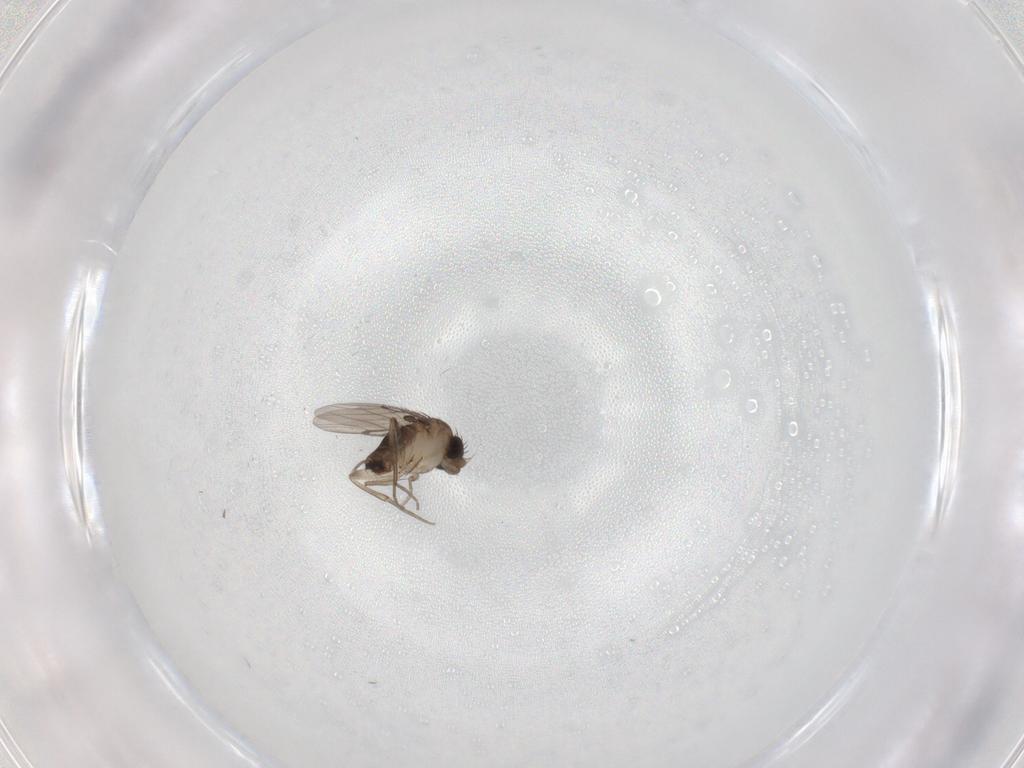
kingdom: Animalia
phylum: Arthropoda
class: Insecta
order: Diptera
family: Phoridae
